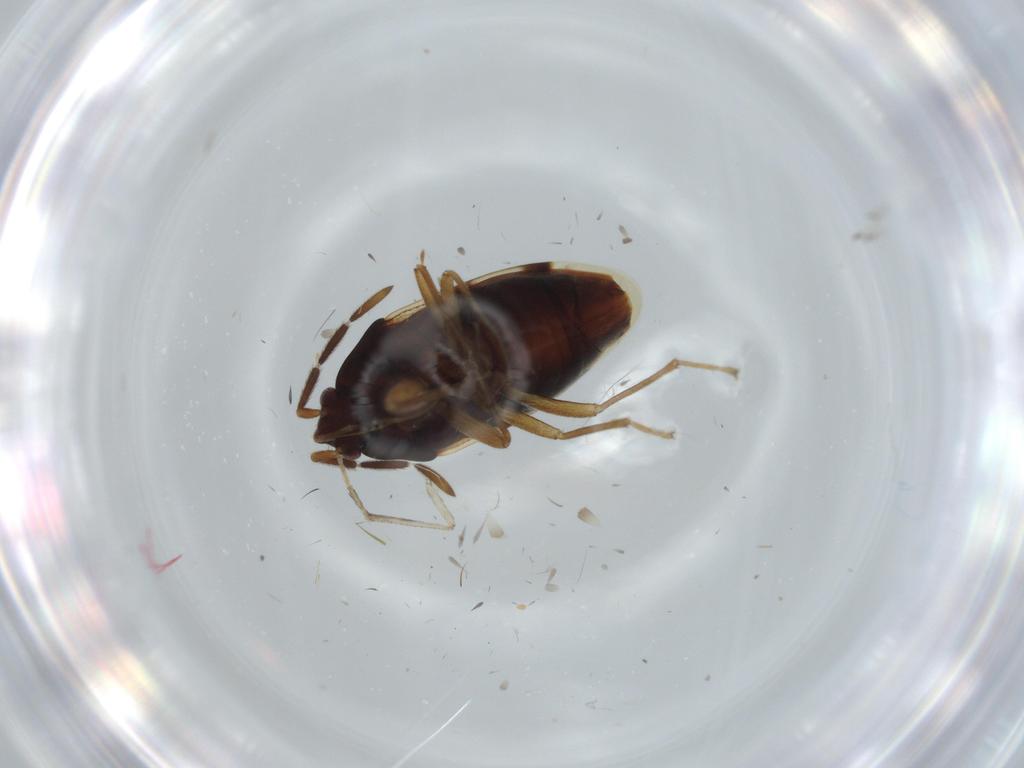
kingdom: Animalia
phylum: Arthropoda
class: Insecta
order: Hemiptera
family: Rhyparochromidae
